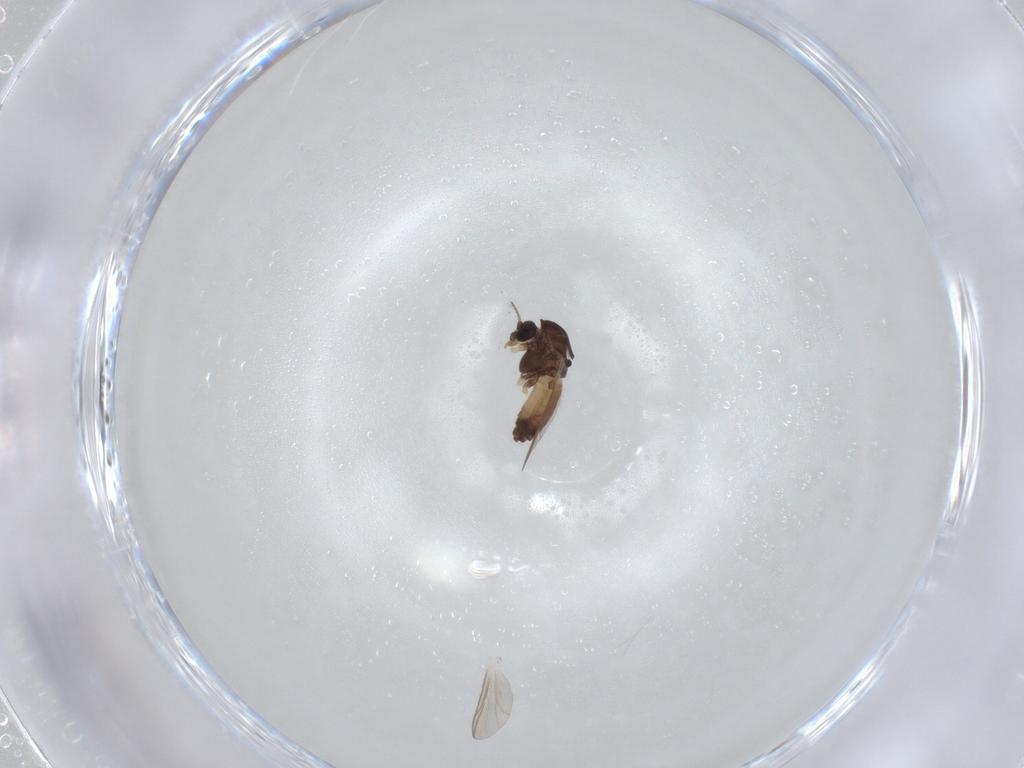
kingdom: Animalia
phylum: Arthropoda
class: Insecta
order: Diptera
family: Chironomidae
